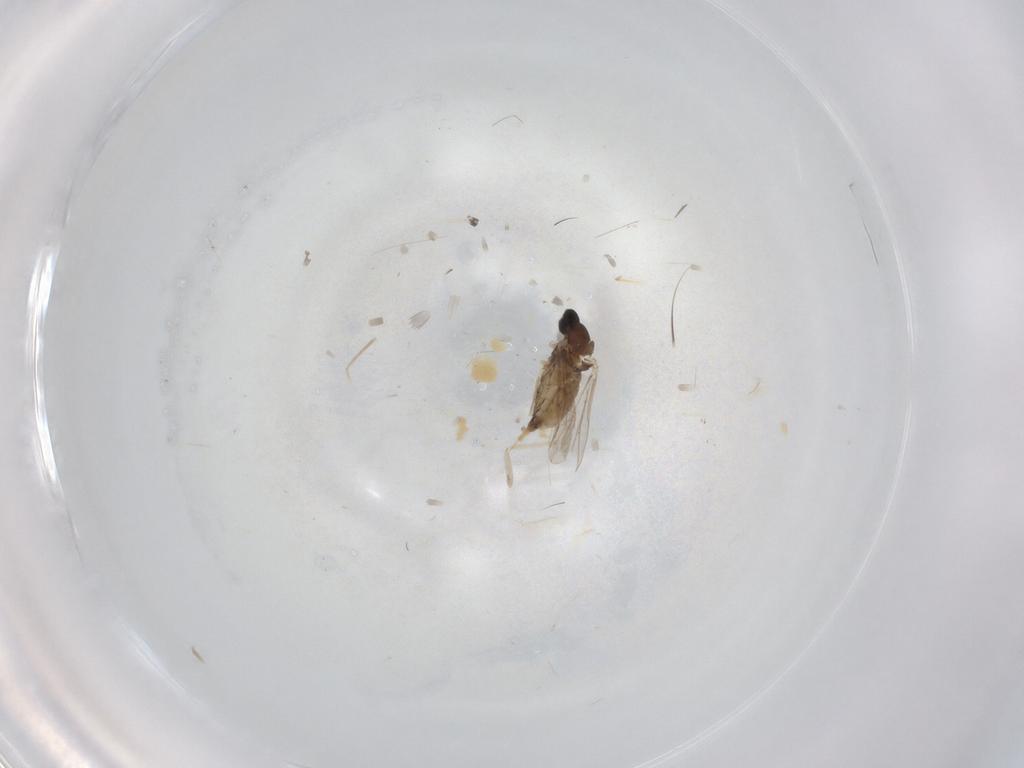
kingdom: Animalia
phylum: Arthropoda
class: Insecta
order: Diptera
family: Cecidomyiidae
